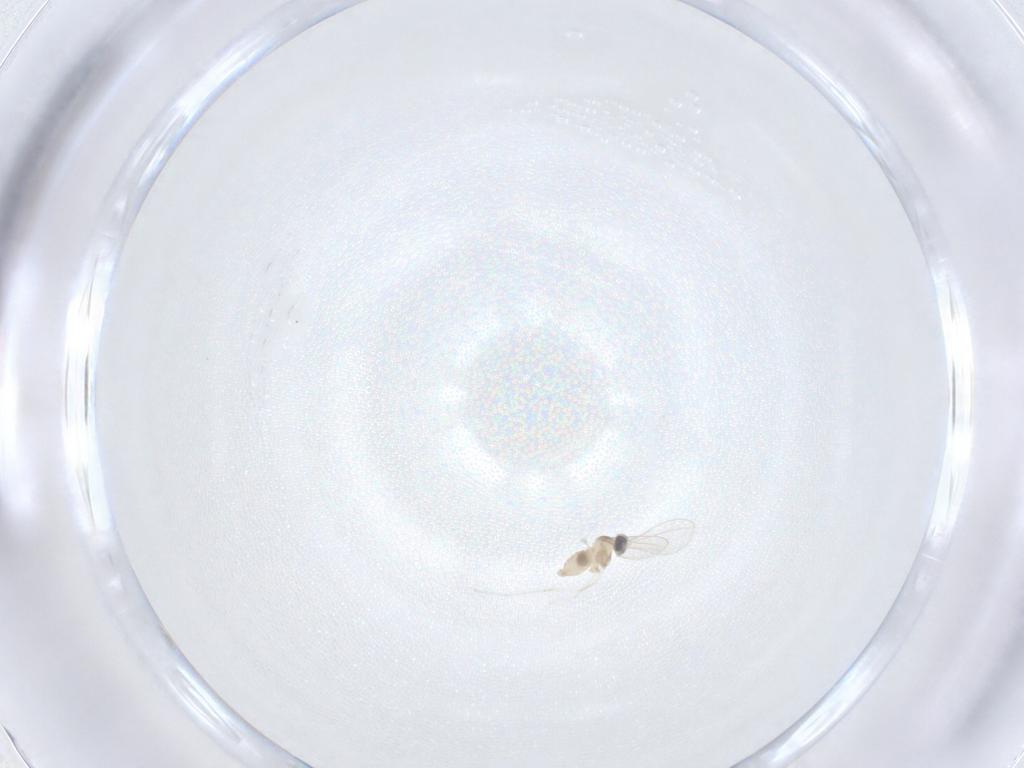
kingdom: Animalia
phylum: Arthropoda
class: Insecta
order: Diptera
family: Cecidomyiidae
